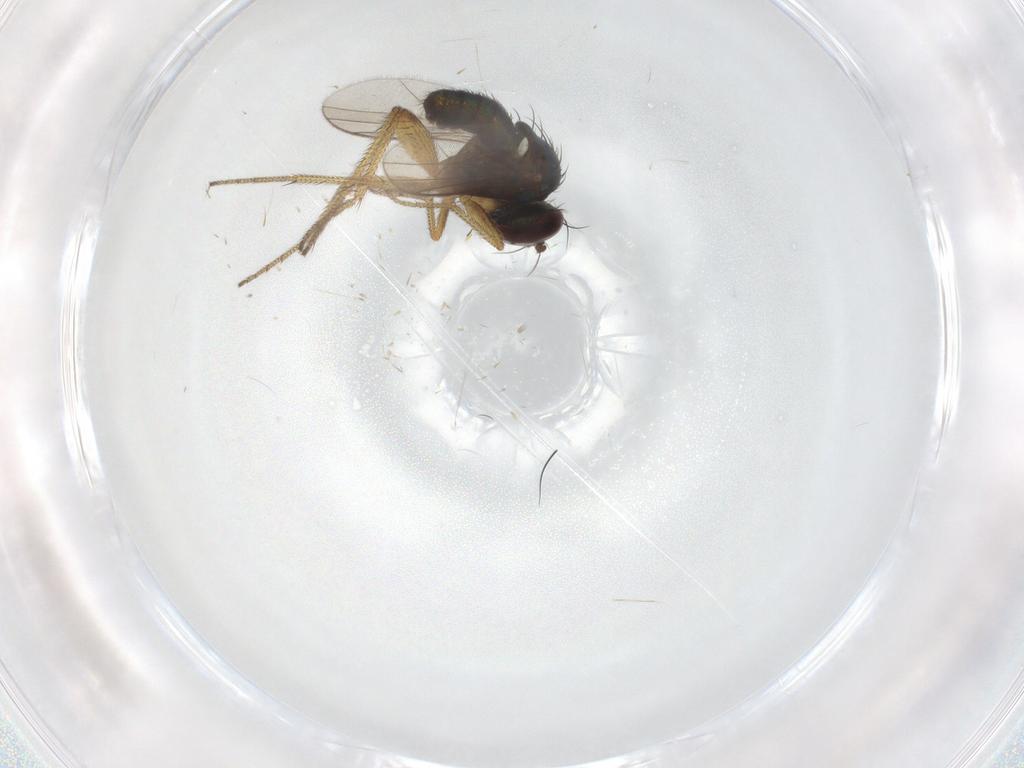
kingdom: Animalia
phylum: Arthropoda
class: Insecta
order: Diptera
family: Dolichopodidae
